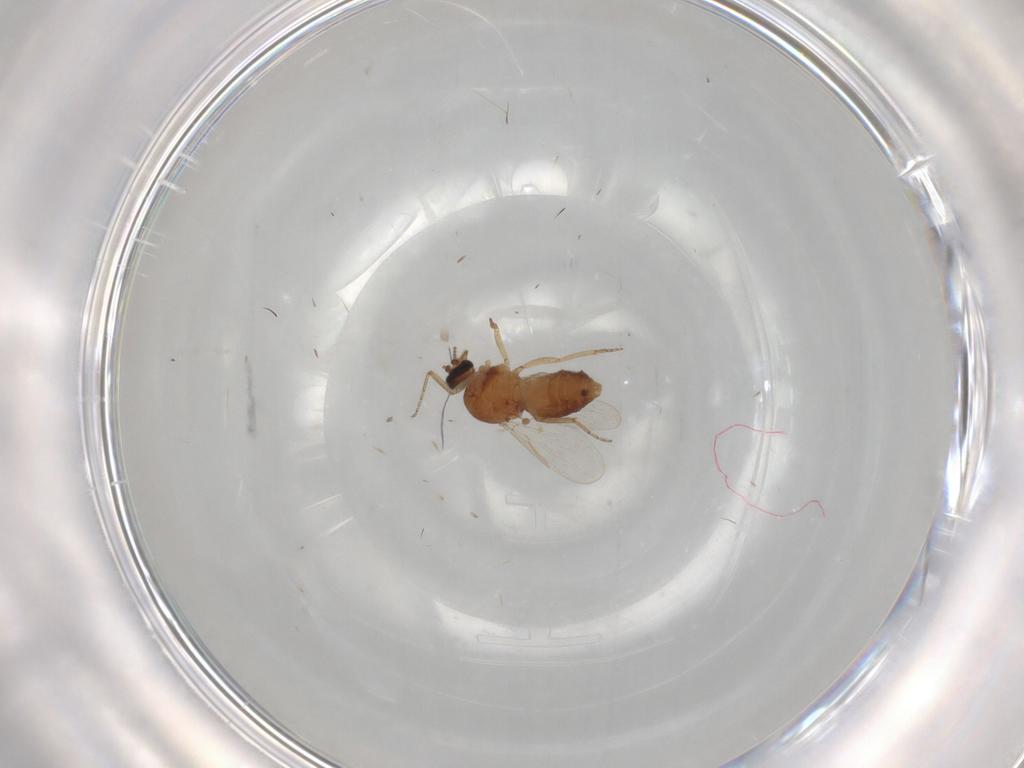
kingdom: Animalia
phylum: Arthropoda
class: Insecta
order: Diptera
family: Ceratopogonidae
